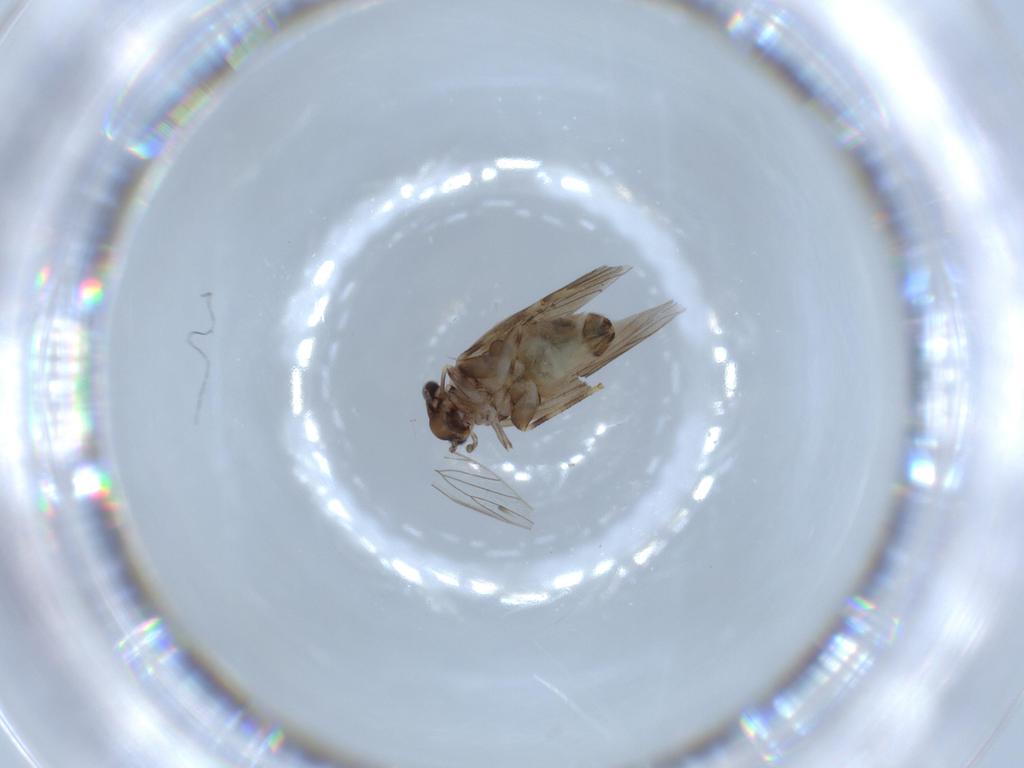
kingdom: Animalia
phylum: Arthropoda
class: Insecta
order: Psocodea
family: Lepidopsocidae
